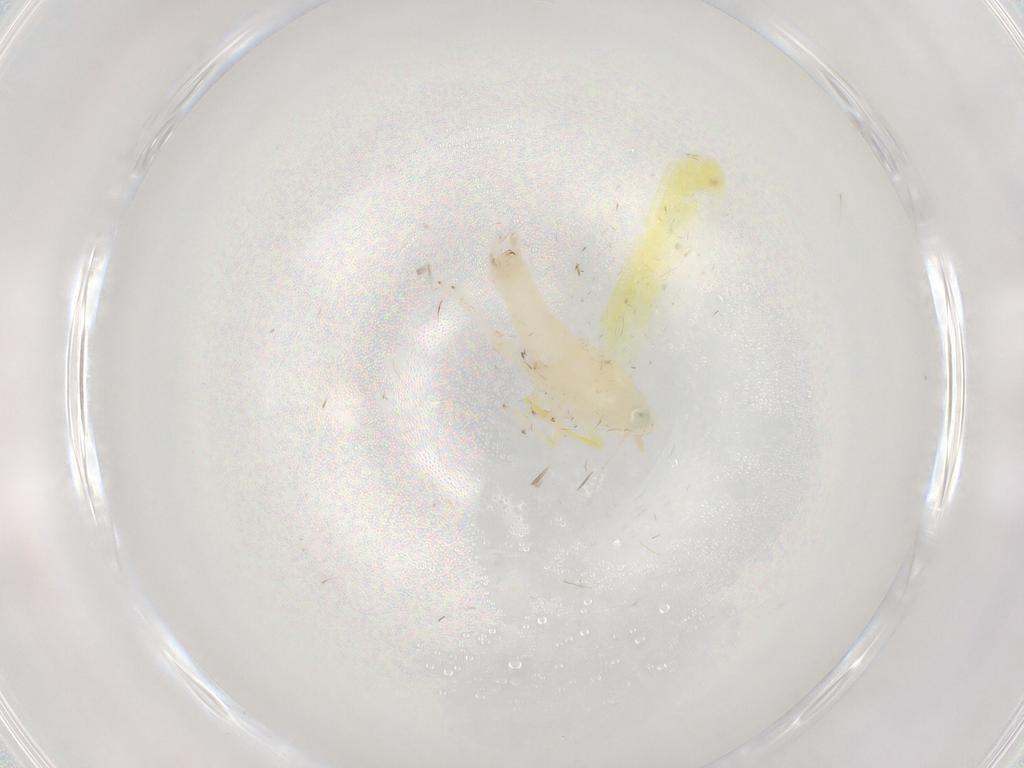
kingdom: Animalia
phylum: Arthropoda
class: Insecta
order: Hemiptera
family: Cicadellidae
